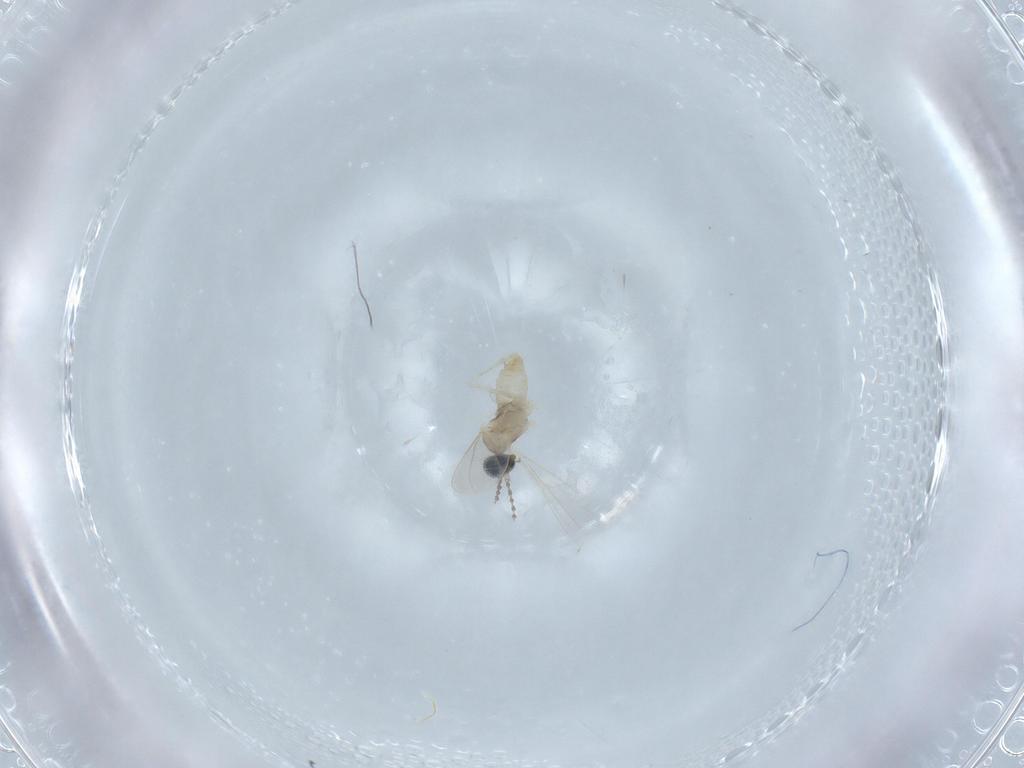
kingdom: Animalia
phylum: Arthropoda
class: Insecta
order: Diptera
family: Cecidomyiidae
